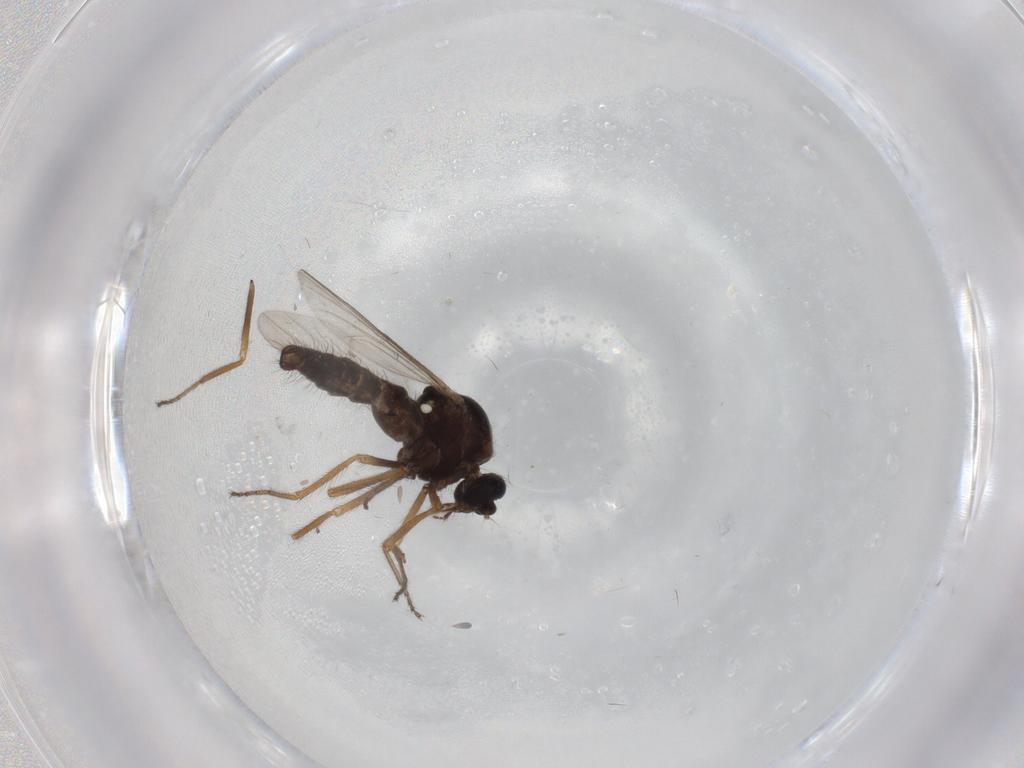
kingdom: Animalia
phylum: Arthropoda
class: Insecta
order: Diptera
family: Ceratopogonidae
